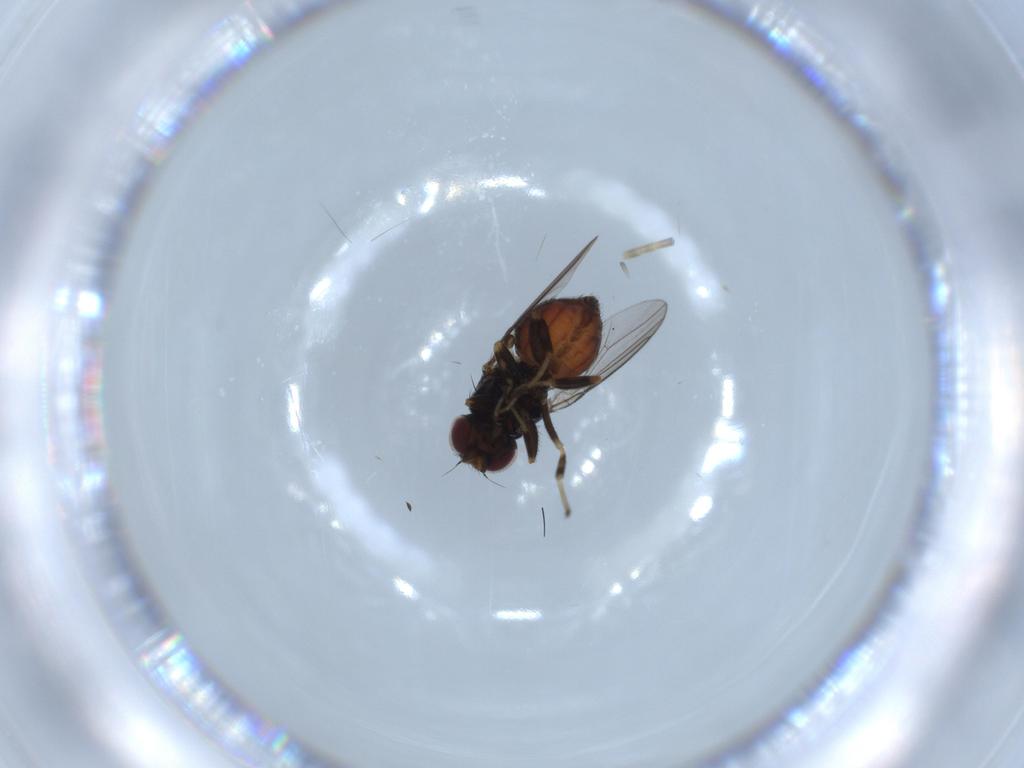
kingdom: Animalia
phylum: Arthropoda
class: Insecta
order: Diptera
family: Chloropidae
